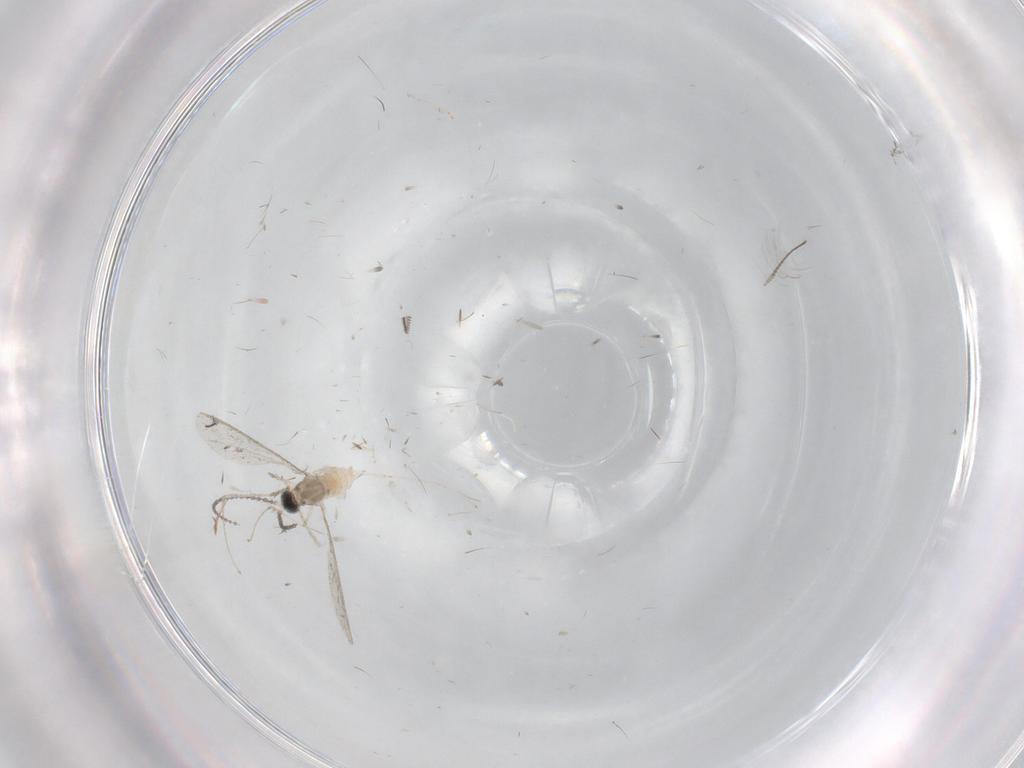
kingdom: Animalia
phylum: Arthropoda
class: Insecta
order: Diptera
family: Cecidomyiidae
